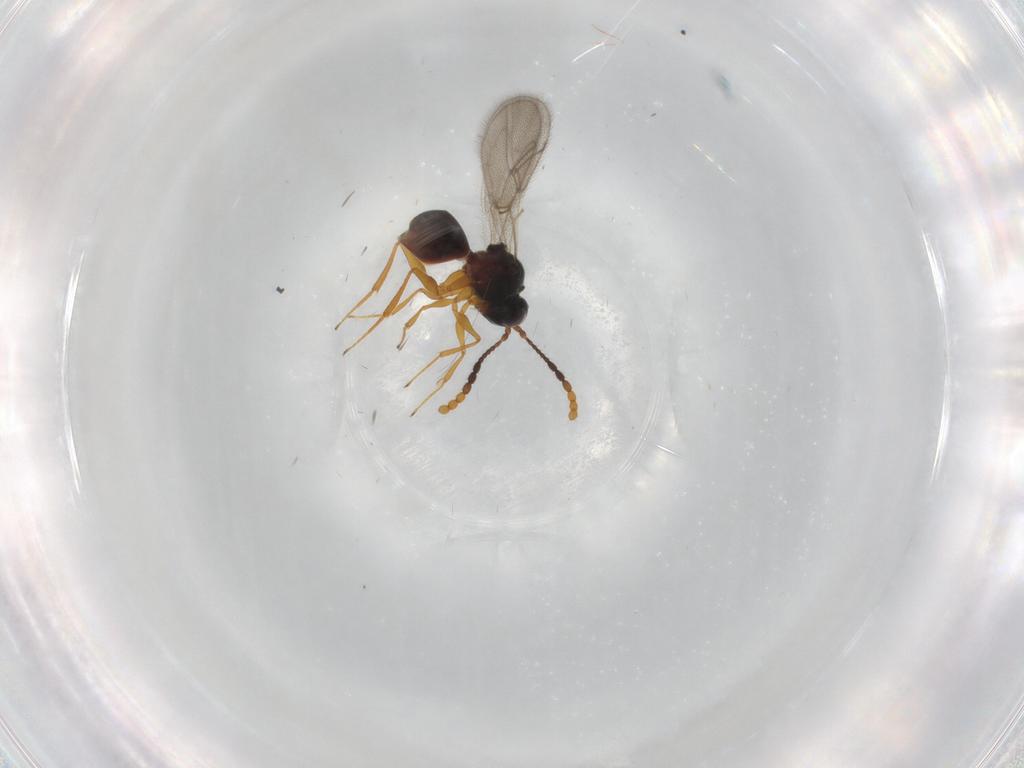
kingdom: Animalia
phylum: Arthropoda
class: Insecta
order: Hymenoptera
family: Figitidae
